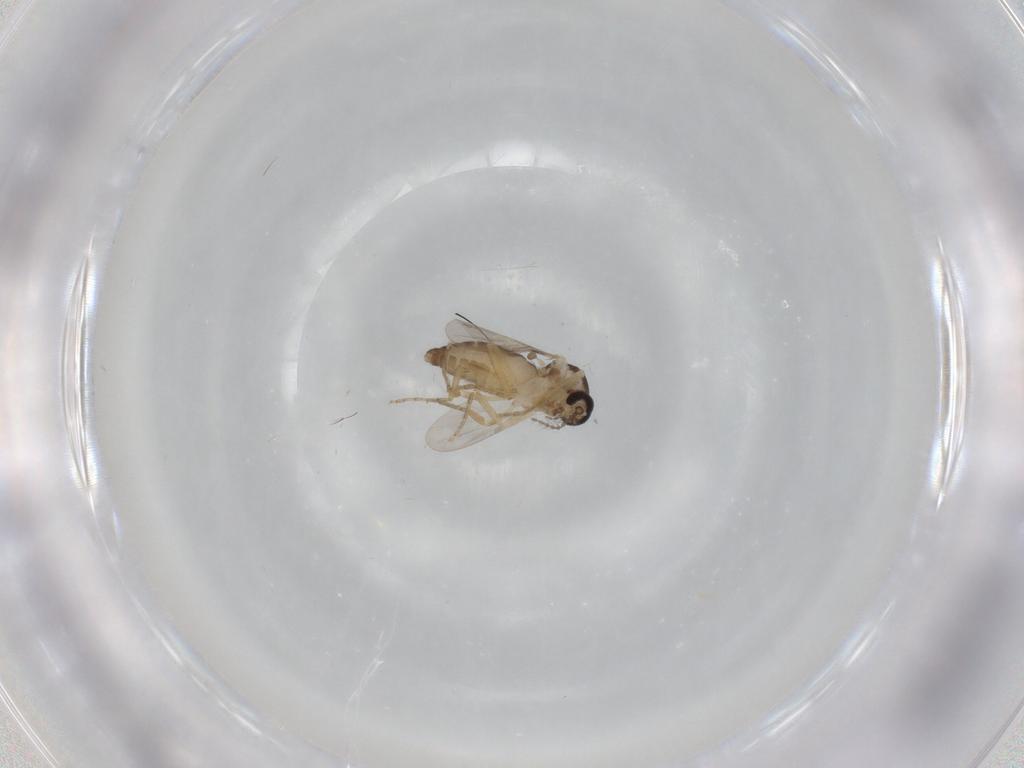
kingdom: Animalia
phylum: Arthropoda
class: Insecta
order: Diptera
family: Ceratopogonidae
